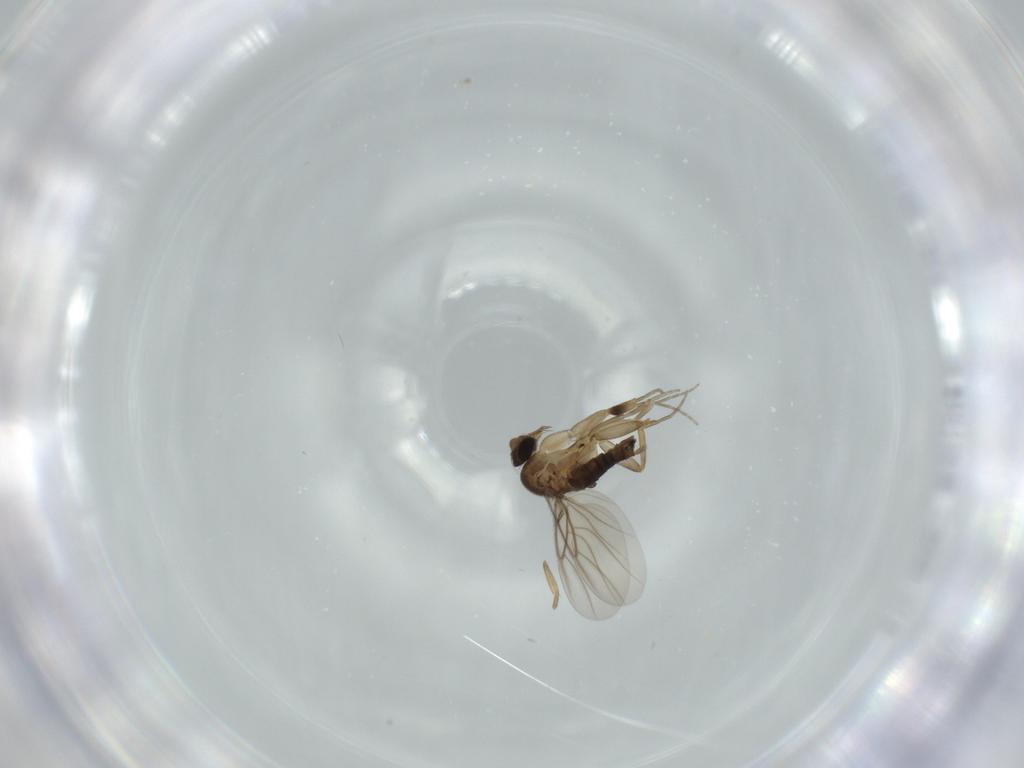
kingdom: Animalia
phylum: Arthropoda
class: Insecta
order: Diptera
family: Phoridae
